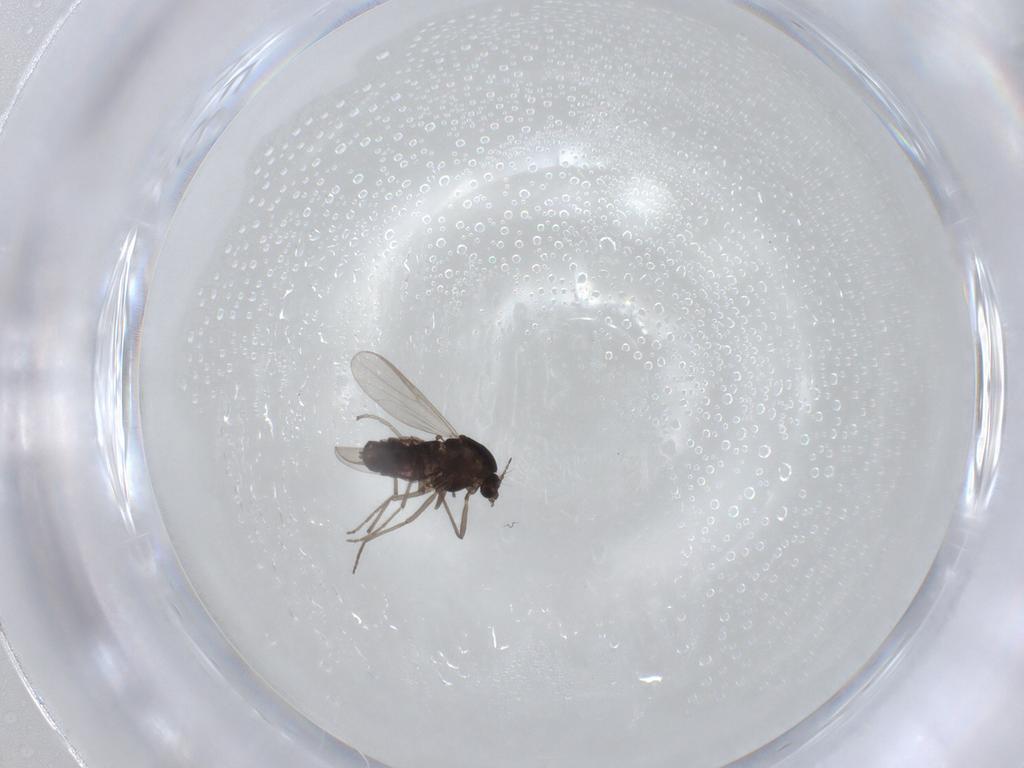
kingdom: Animalia
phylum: Arthropoda
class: Insecta
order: Diptera
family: Chironomidae
